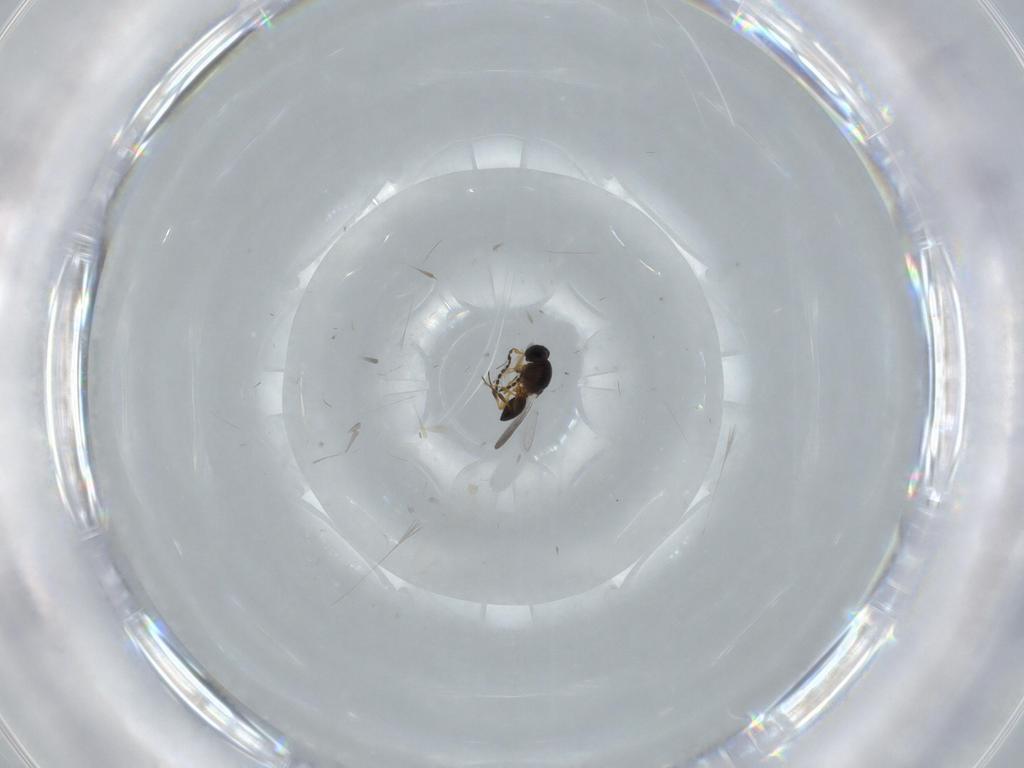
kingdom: Animalia
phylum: Arthropoda
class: Insecta
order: Hymenoptera
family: Platygastridae
